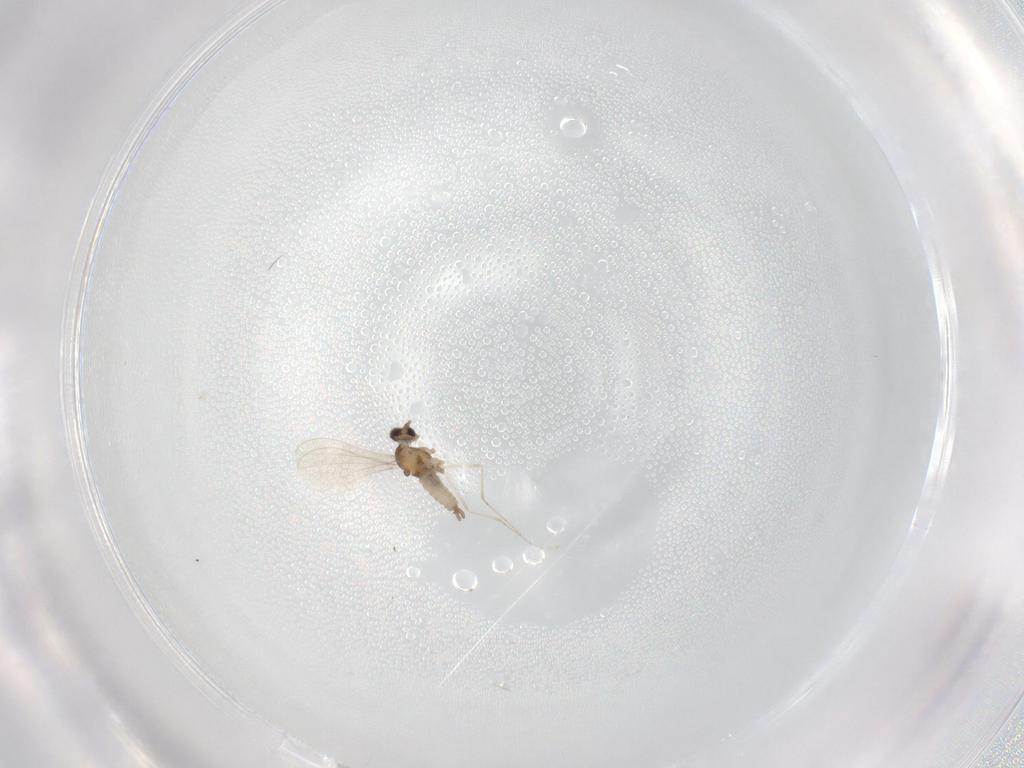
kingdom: Animalia
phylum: Arthropoda
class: Insecta
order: Diptera
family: Cecidomyiidae
